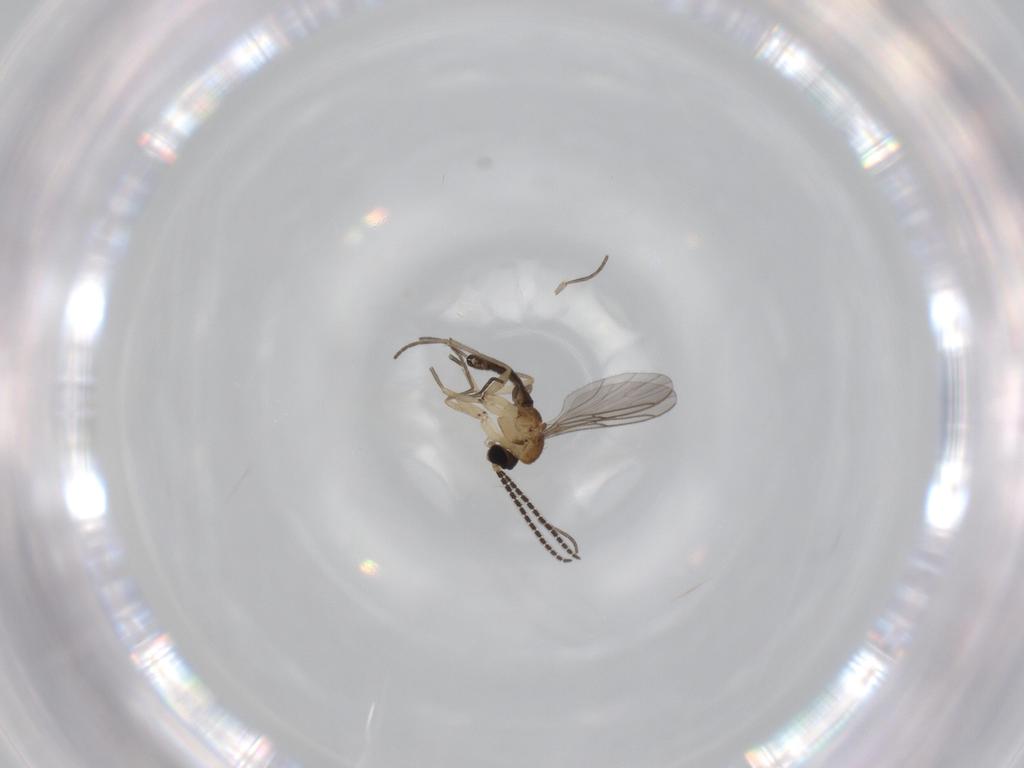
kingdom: Animalia
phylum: Arthropoda
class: Insecta
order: Diptera
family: Sciaridae
